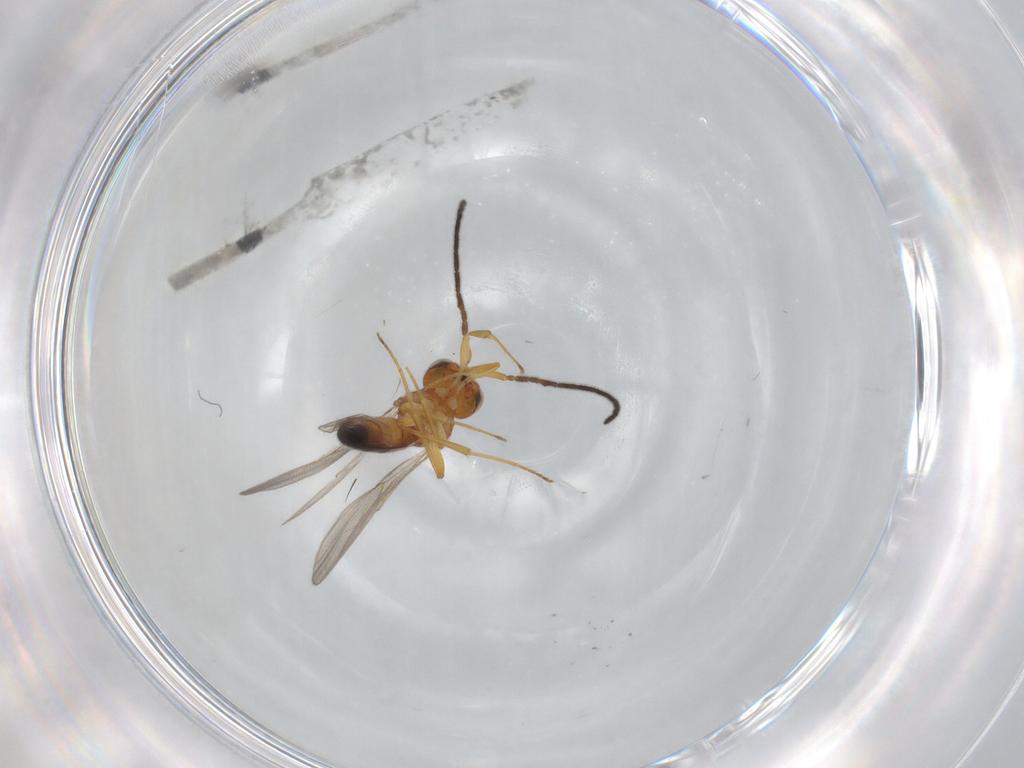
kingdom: Animalia
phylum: Arthropoda
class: Insecta
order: Hymenoptera
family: Scelionidae
